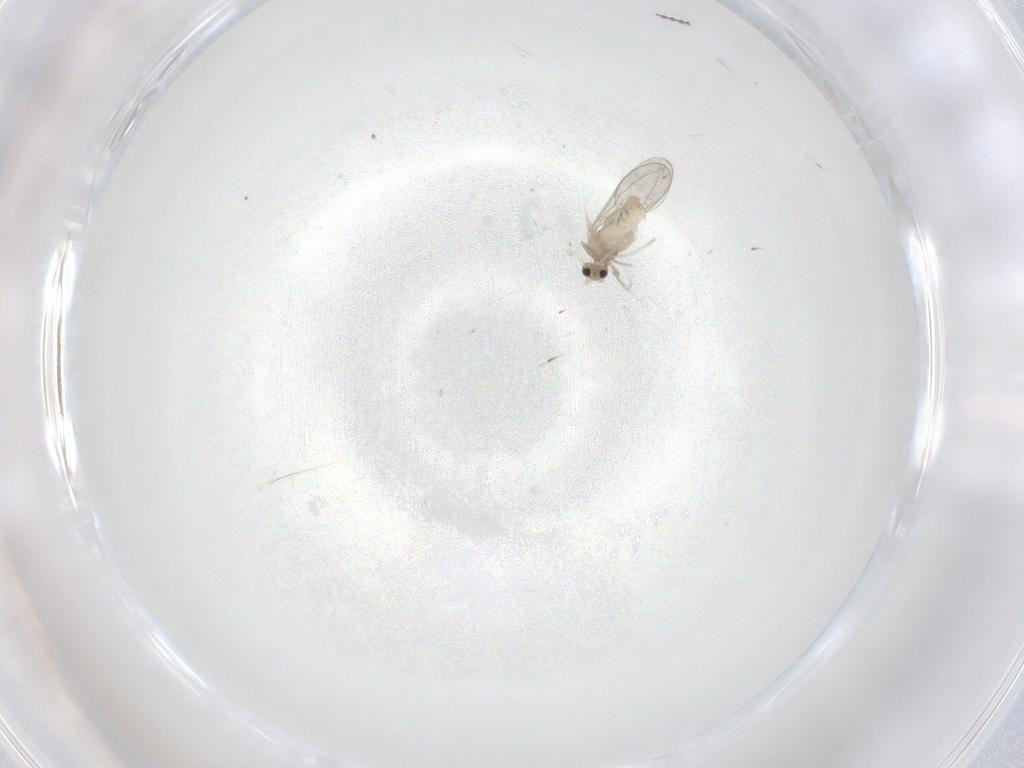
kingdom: Animalia
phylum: Arthropoda
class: Insecta
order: Diptera
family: Cecidomyiidae
